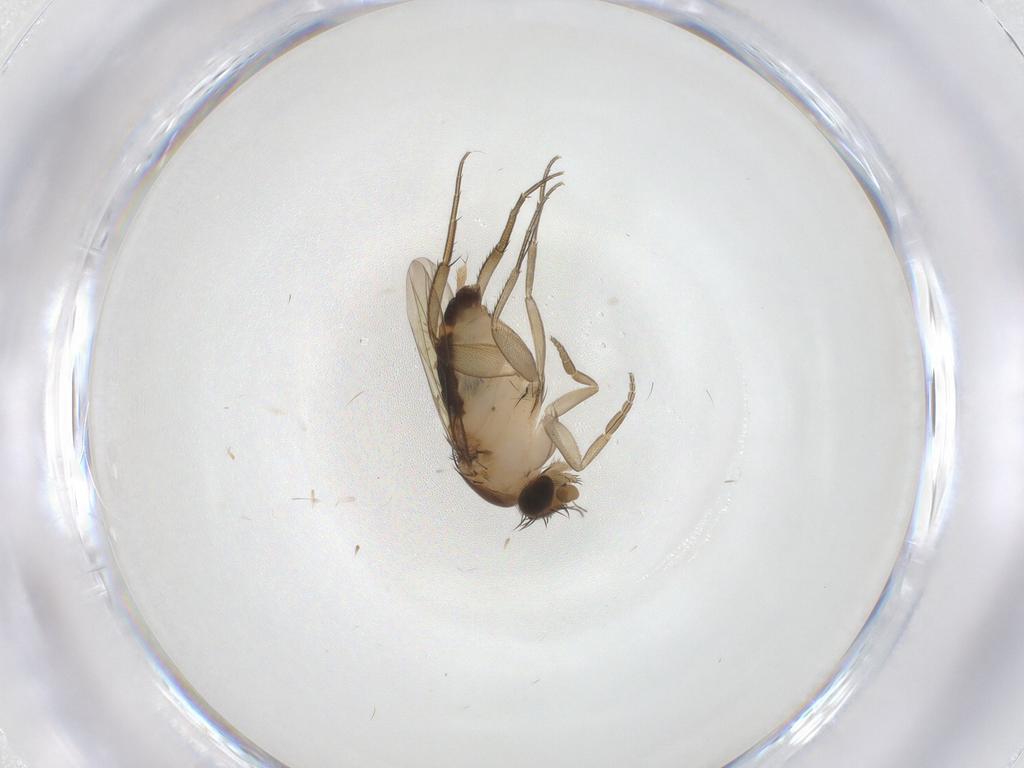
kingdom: Animalia
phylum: Arthropoda
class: Insecta
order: Diptera
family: Phoridae
